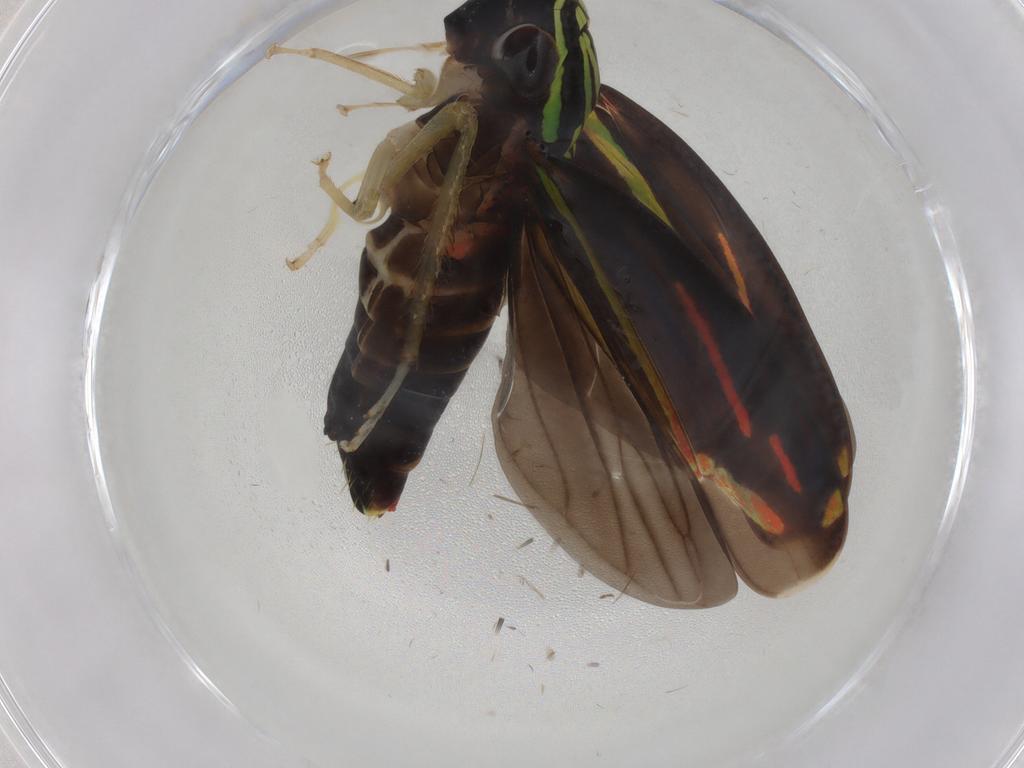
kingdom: Animalia
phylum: Arthropoda
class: Insecta
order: Hemiptera
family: Cicadellidae
